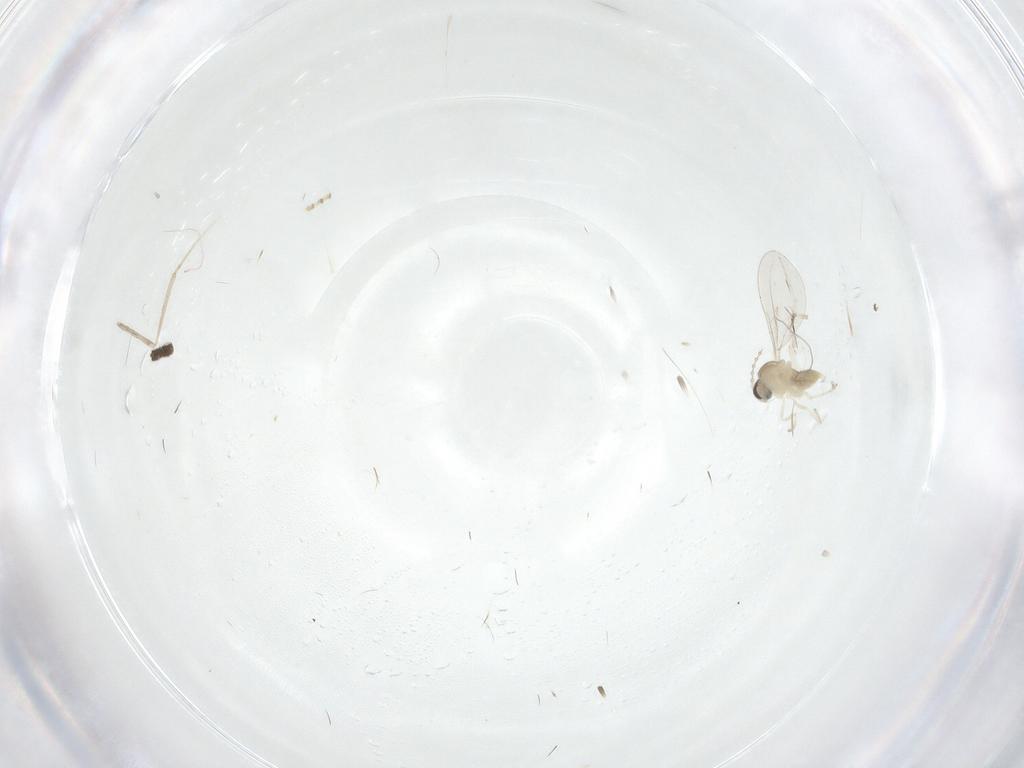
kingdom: Animalia
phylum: Arthropoda
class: Insecta
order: Diptera
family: Cecidomyiidae
